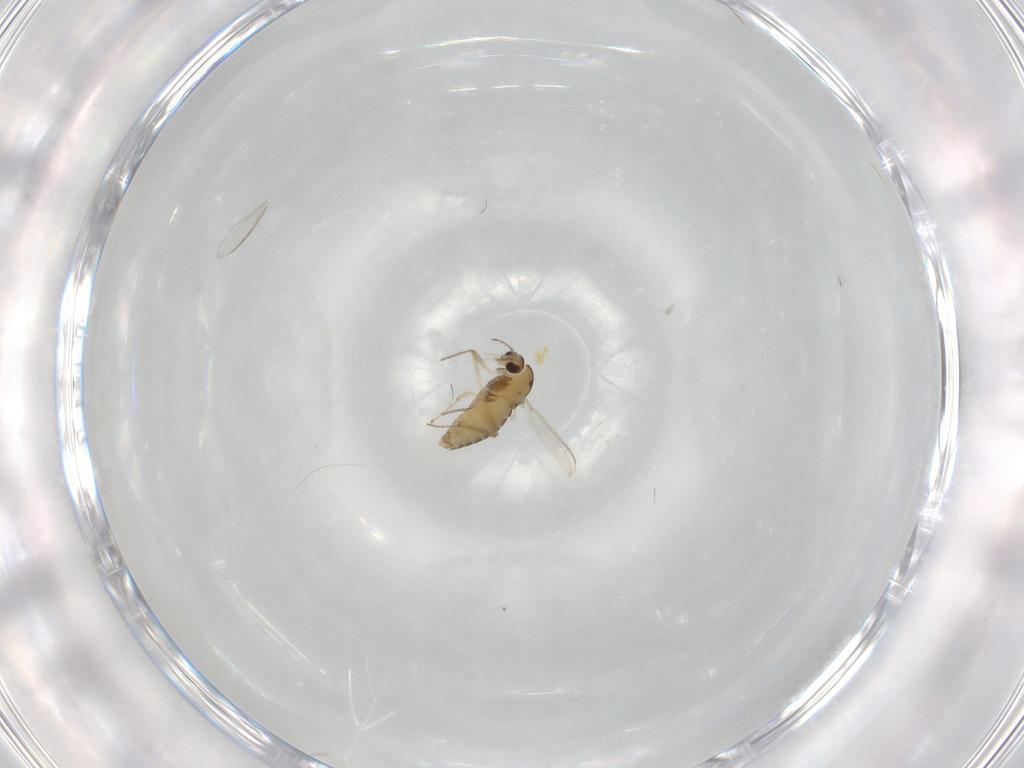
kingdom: Animalia
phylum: Arthropoda
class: Insecta
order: Diptera
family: Chironomidae
